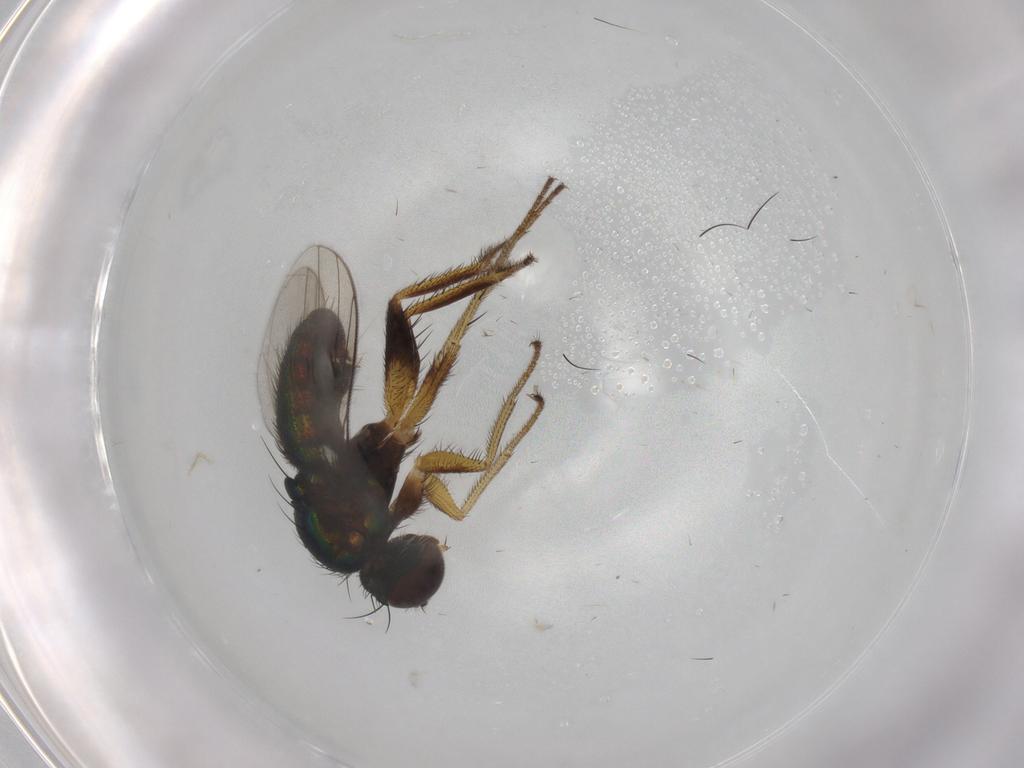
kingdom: Animalia
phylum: Arthropoda
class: Insecta
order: Diptera
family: Dolichopodidae
